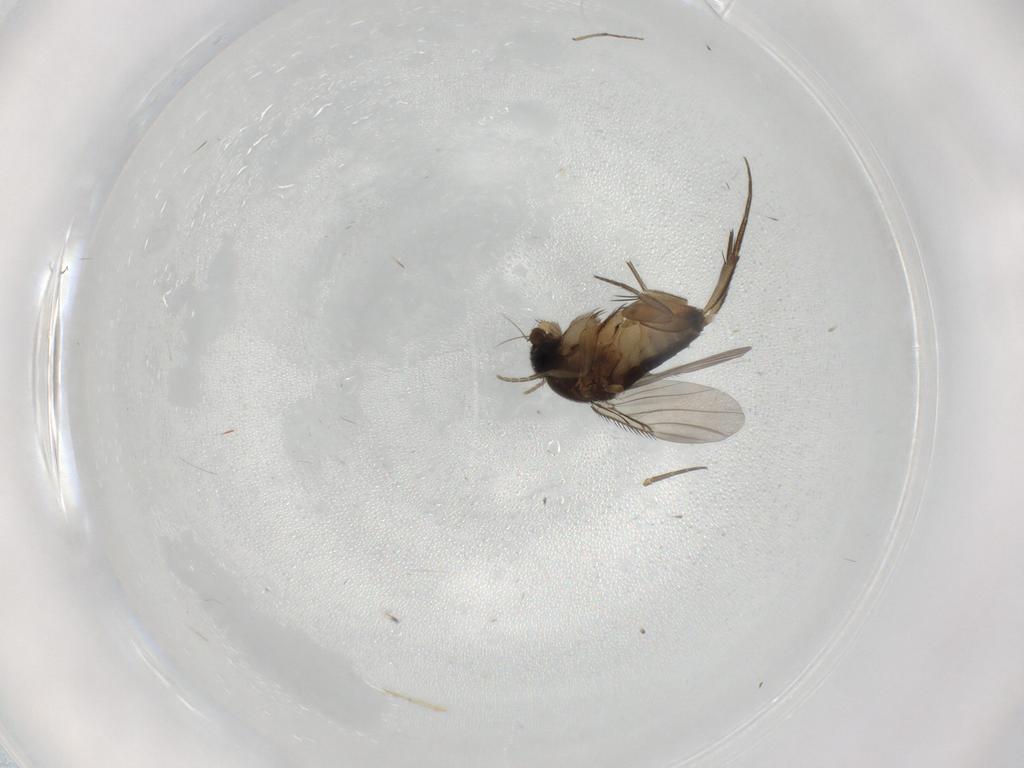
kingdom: Animalia
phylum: Arthropoda
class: Insecta
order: Diptera
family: Phoridae
